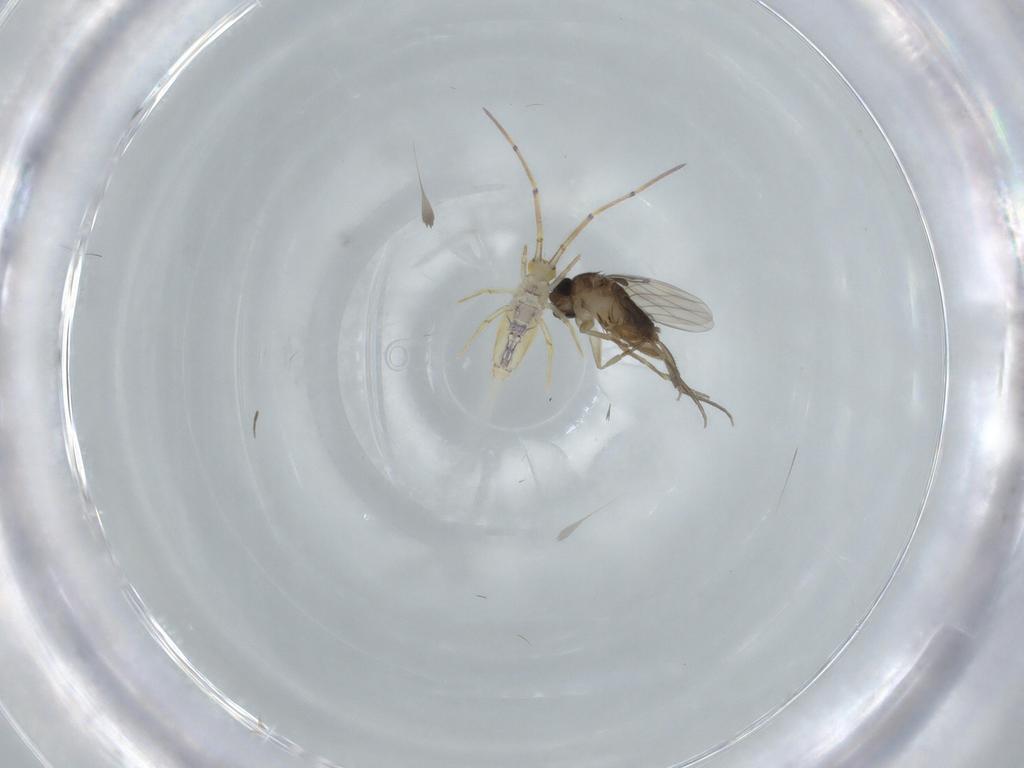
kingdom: Animalia
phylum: Arthropoda
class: Insecta
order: Diptera
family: Phoridae
